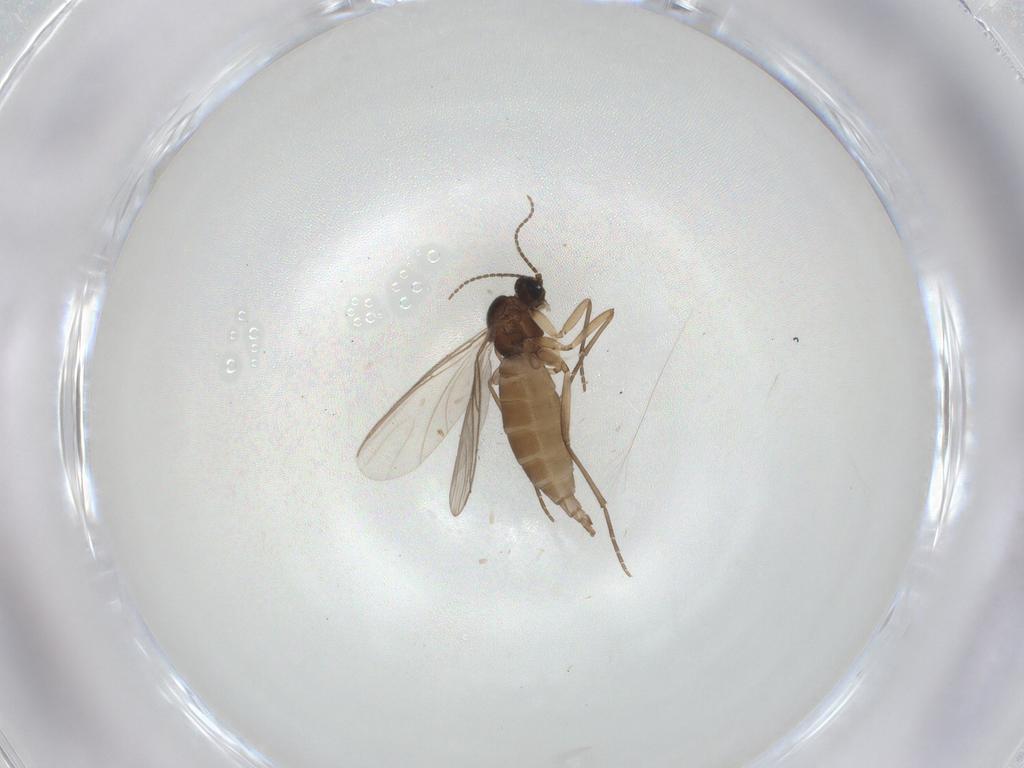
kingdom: Animalia
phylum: Arthropoda
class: Insecta
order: Diptera
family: Sciaridae
